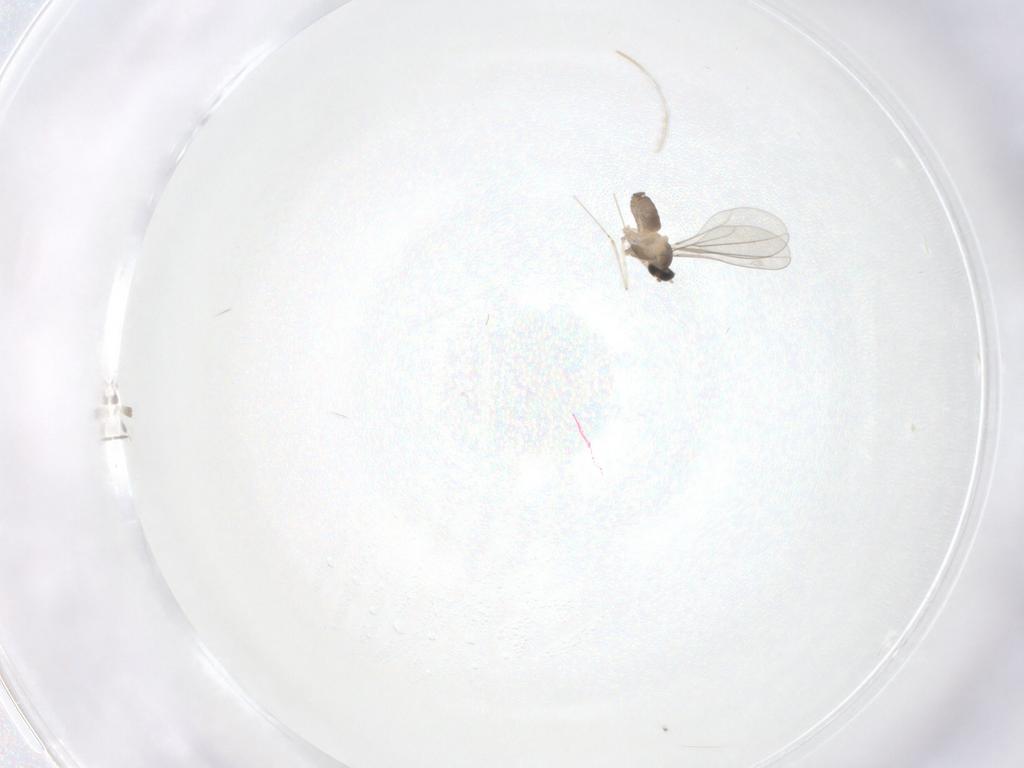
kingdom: Animalia
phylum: Arthropoda
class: Insecta
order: Diptera
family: Cecidomyiidae
